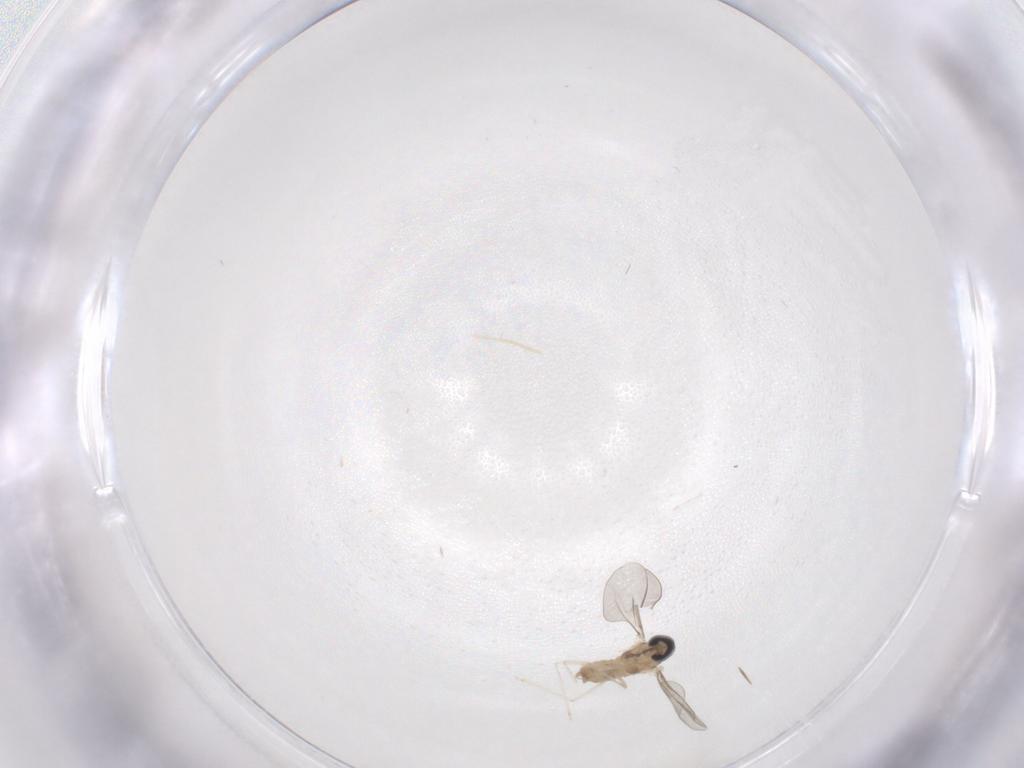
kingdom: Animalia
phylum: Arthropoda
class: Insecta
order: Diptera
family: Cecidomyiidae
